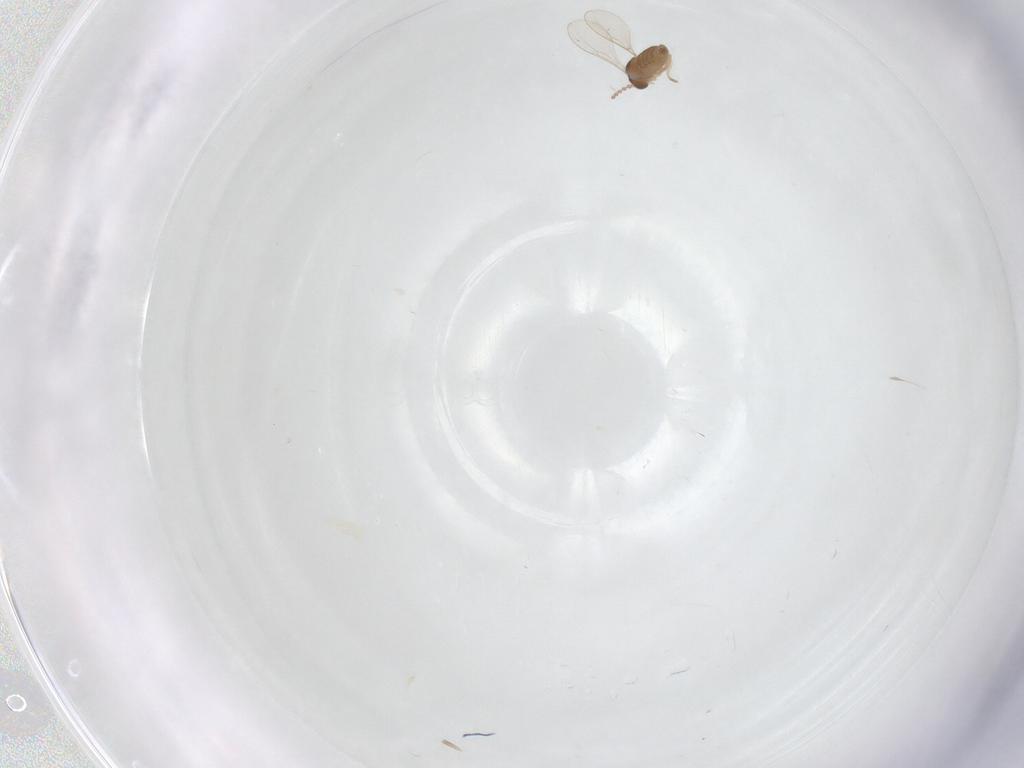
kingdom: Animalia
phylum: Arthropoda
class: Insecta
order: Diptera
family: Cecidomyiidae
